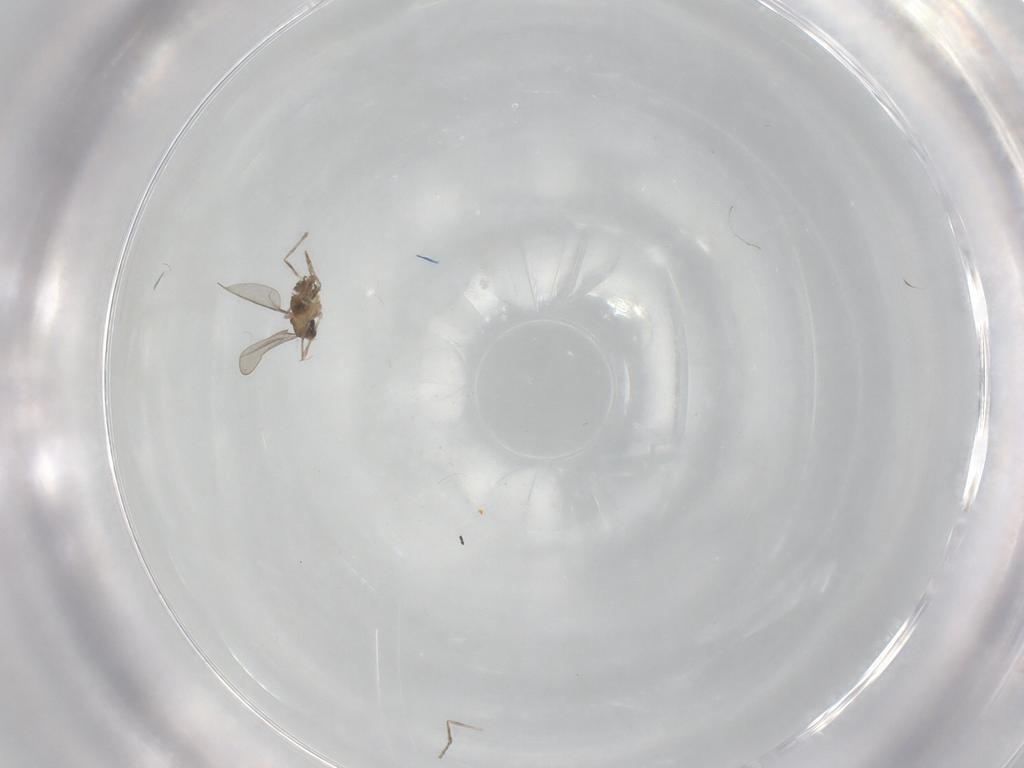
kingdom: Animalia
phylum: Arthropoda
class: Insecta
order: Diptera
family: Cecidomyiidae
